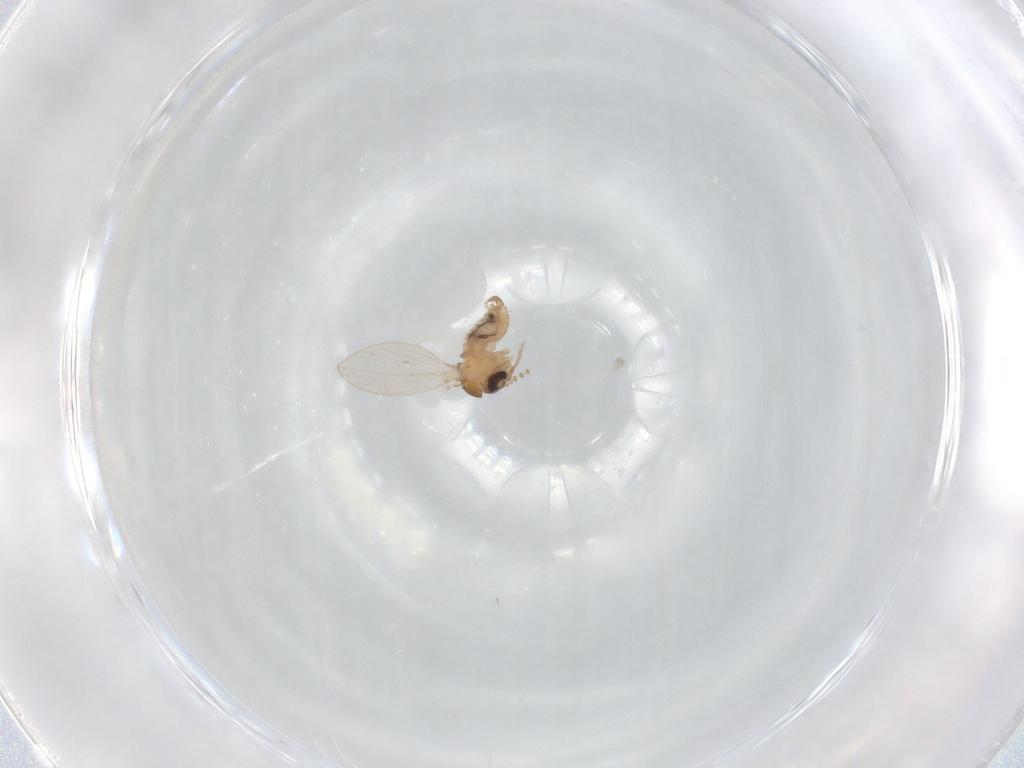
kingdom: Animalia
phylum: Arthropoda
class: Insecta
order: Diptera
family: Psychodidae
